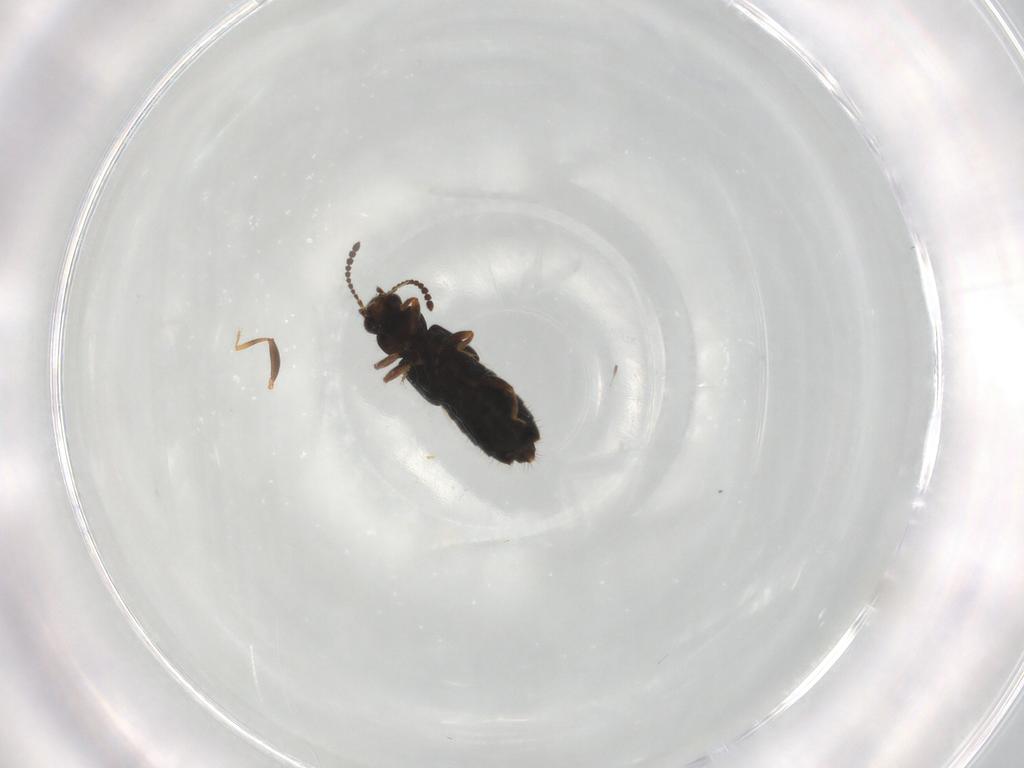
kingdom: Animalia
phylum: Arthropoda
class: Insecta
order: Coleoptera
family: Staphylinidae
